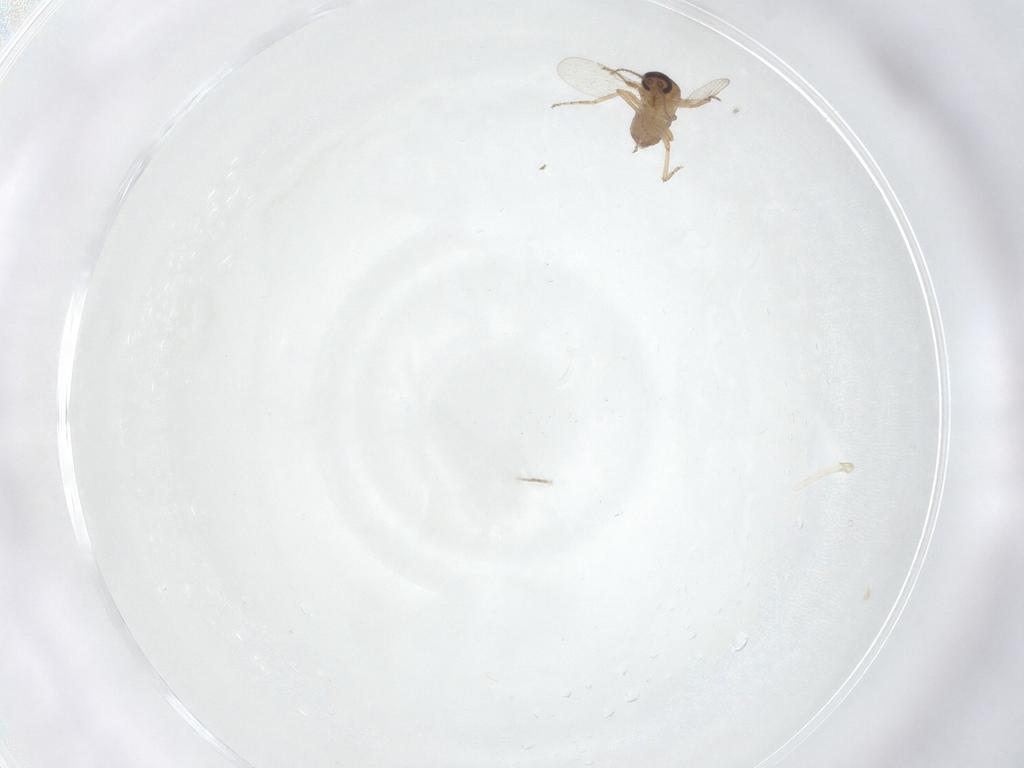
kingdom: Animalia
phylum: Arthropoda
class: Insecta
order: Diptera
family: Ceratopogonidae
